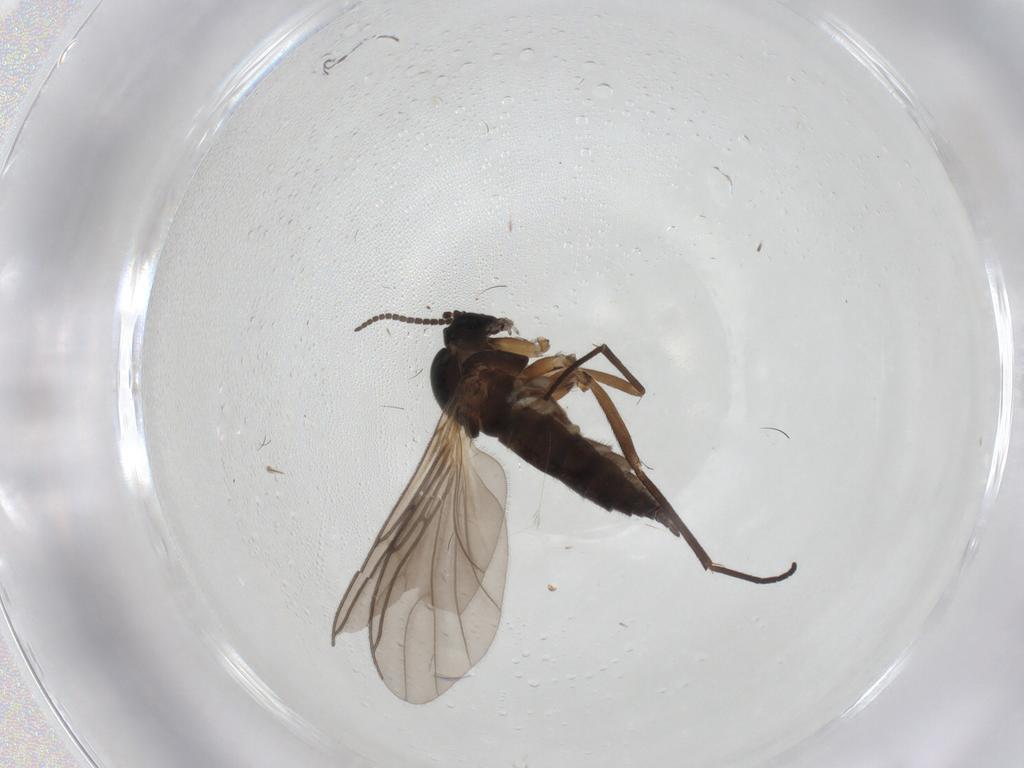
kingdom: Animalia
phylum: Arthropoda
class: Insecta
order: Diptera
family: Sciaridae
